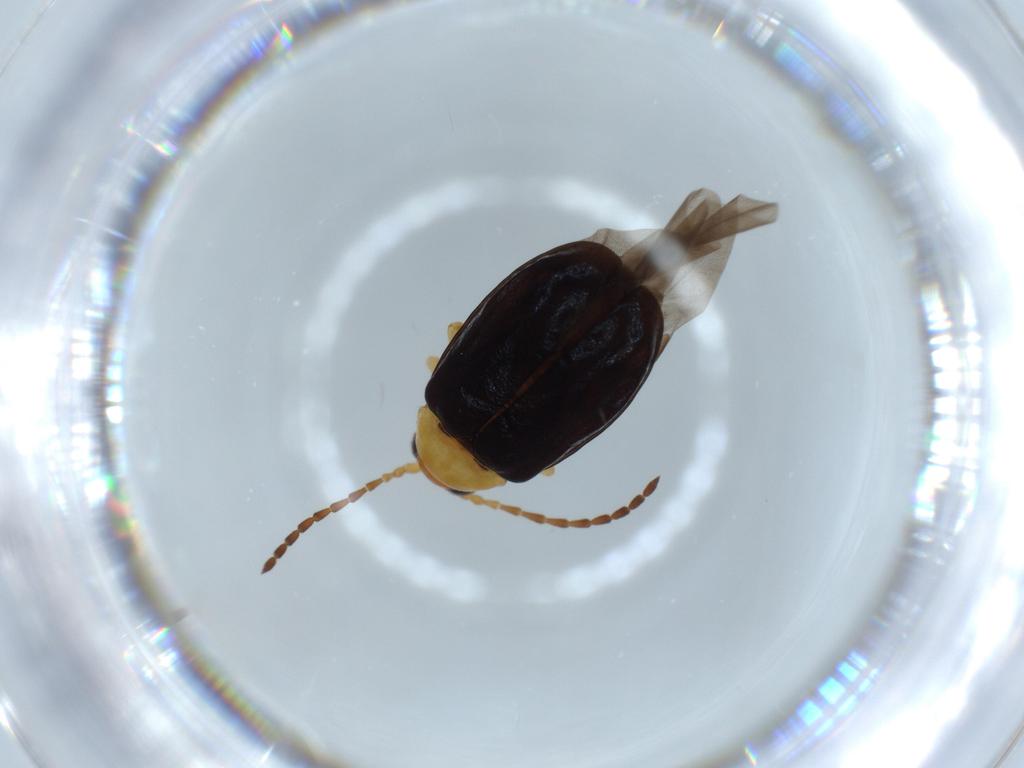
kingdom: Animalia
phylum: Arthropoda
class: Insecta
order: Coleoptera
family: Chrysomelidae
